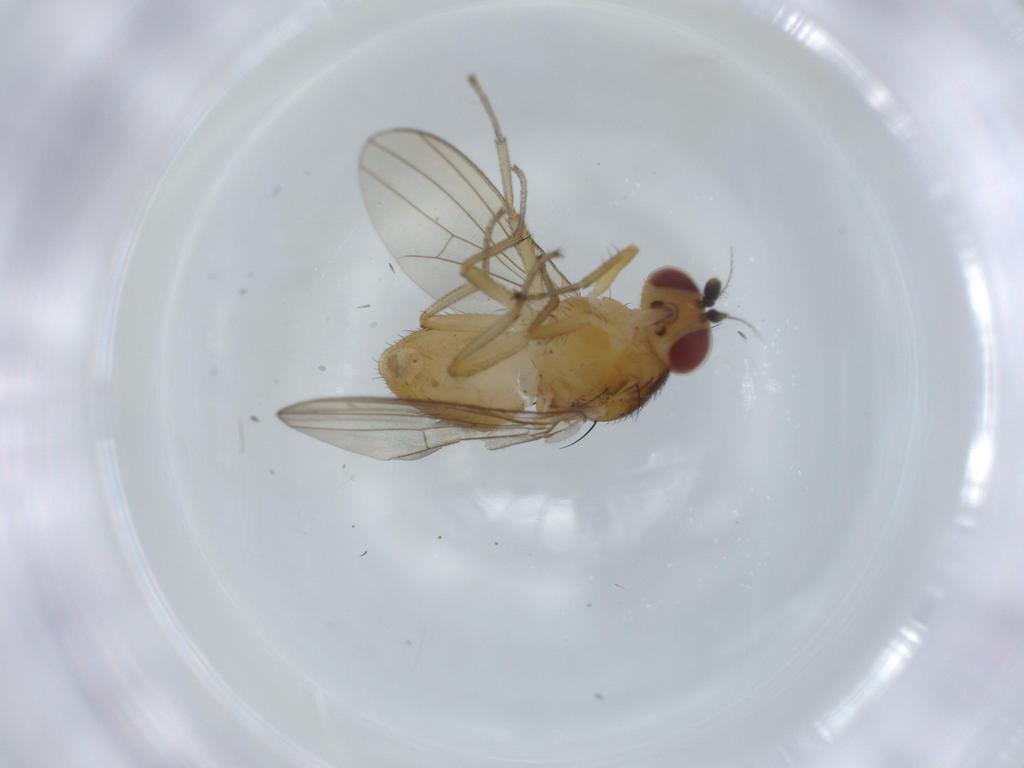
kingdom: Animalia
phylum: Arthropoda
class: Insecta
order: Diptera
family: Lauxaniidae
